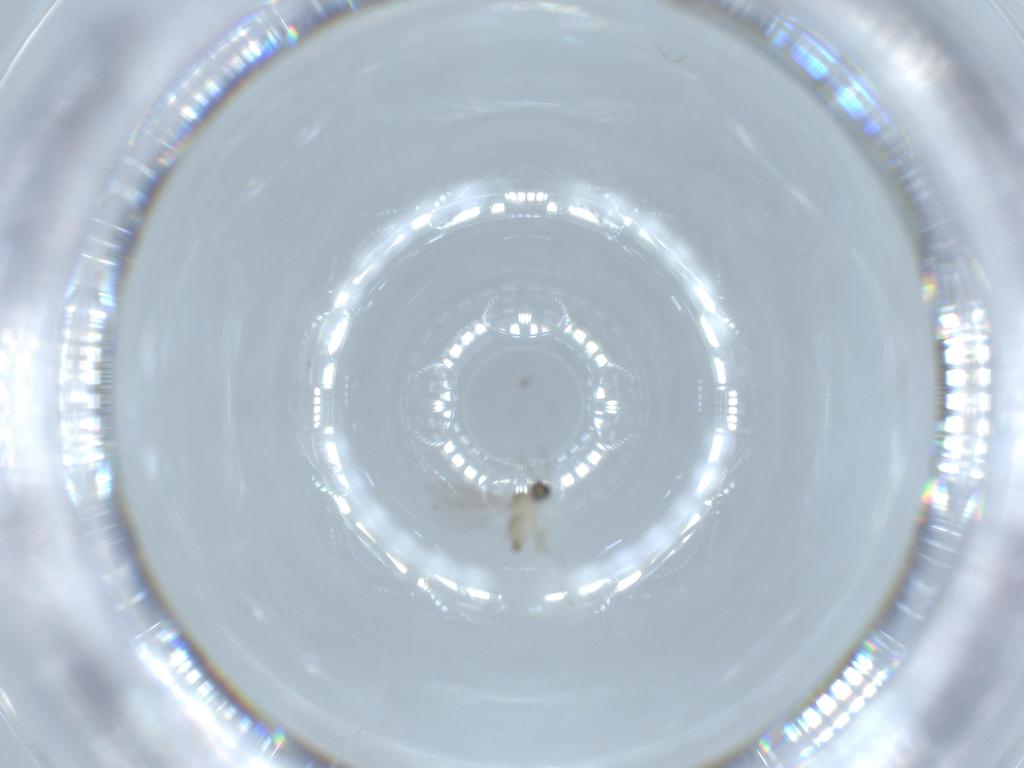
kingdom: Animalia
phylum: Arthropoda
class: Insecta
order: Diptera
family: Cecidomyiidae
